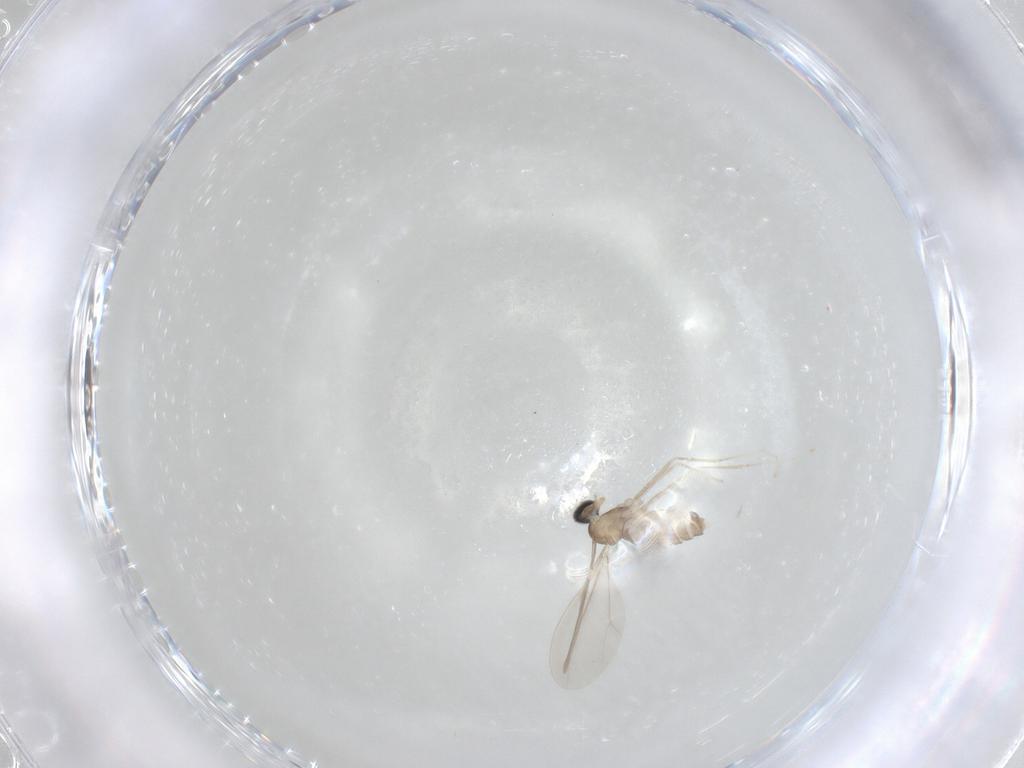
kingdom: Animalia
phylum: Arthropoda
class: Insecta
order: Diptera
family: Cecidomyiidae
